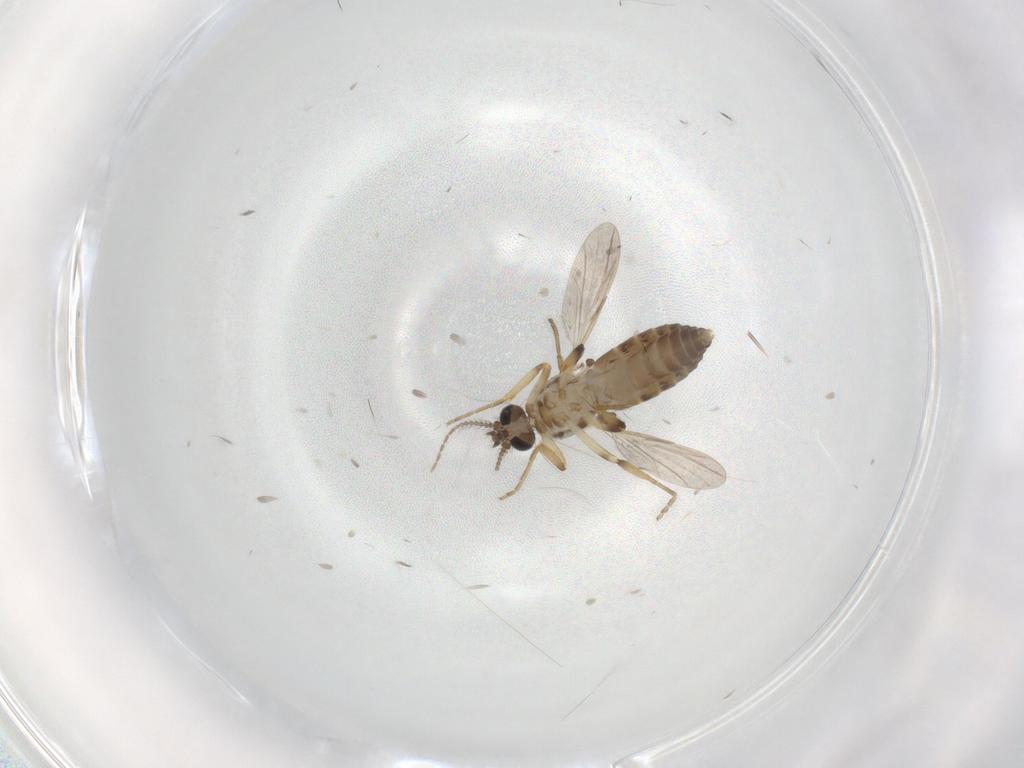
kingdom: Animalia
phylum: Arthropoda
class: Insecta
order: Diptera
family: Ceratopogonidae
